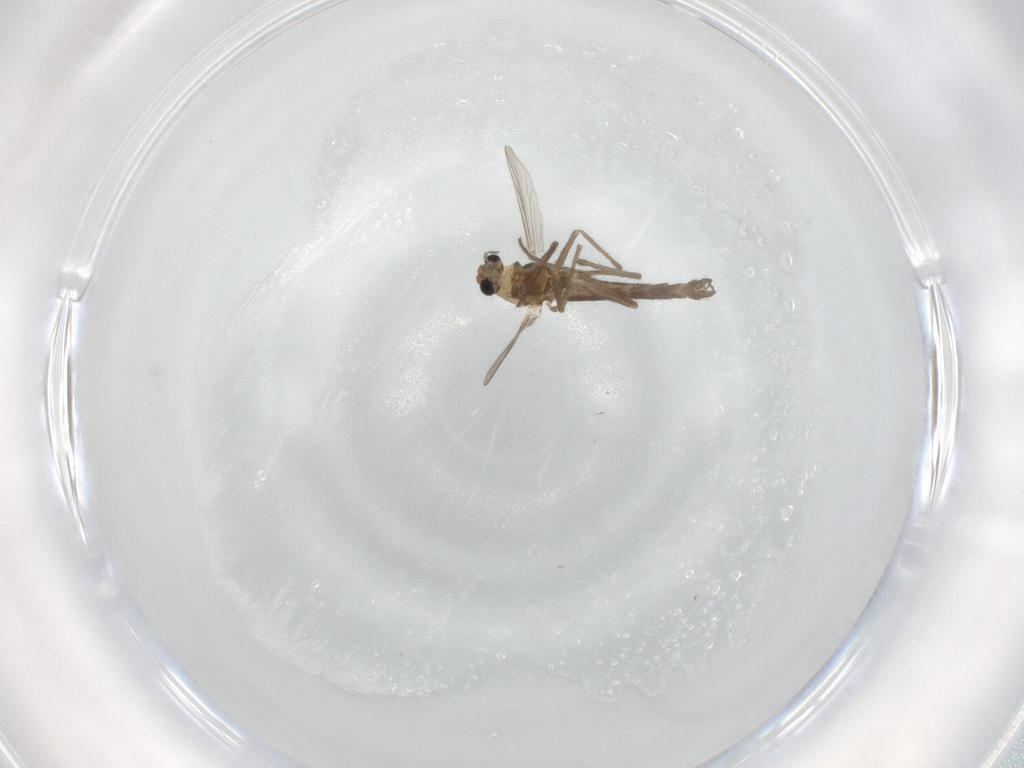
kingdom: Animalia
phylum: Arthropoda
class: Insecta
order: Diptera
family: Chironomidae
